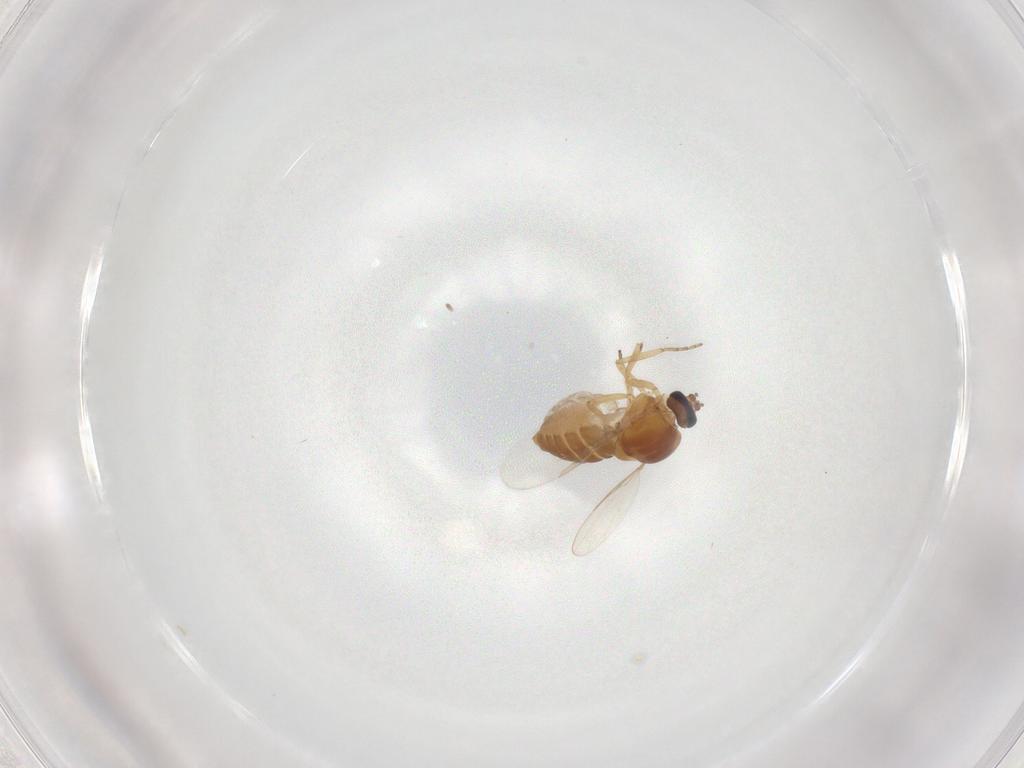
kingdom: Animalia
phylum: Arthropoda
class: Insecta
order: Diptera
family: Ceratopogonidae
